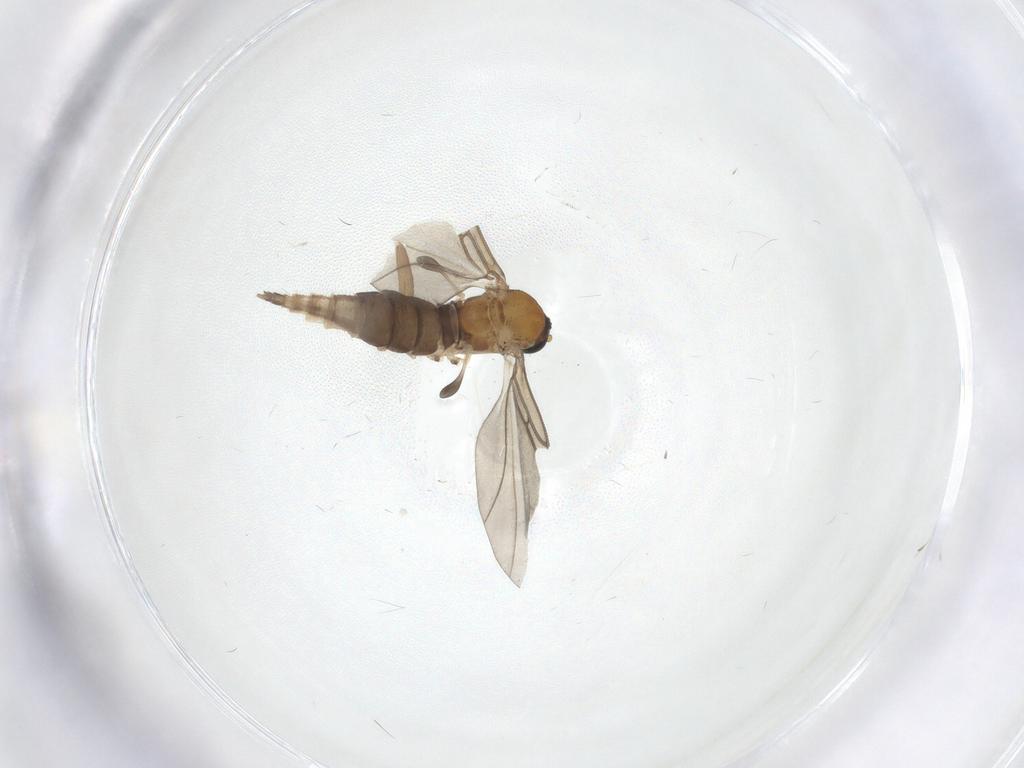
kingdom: Animalia
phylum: Arthropoda
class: Insecta
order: Diptera
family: Sciaridae
